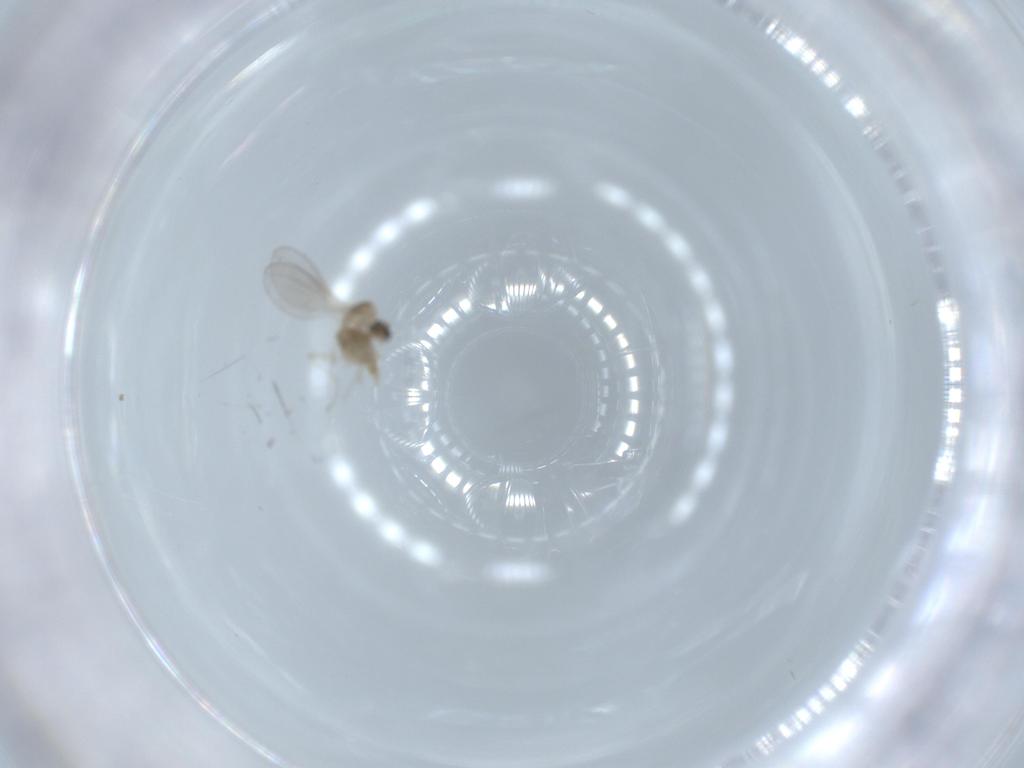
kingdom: Animalia
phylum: Arthropoda
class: Insecta
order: Diptera
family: Cecidomyiidae
